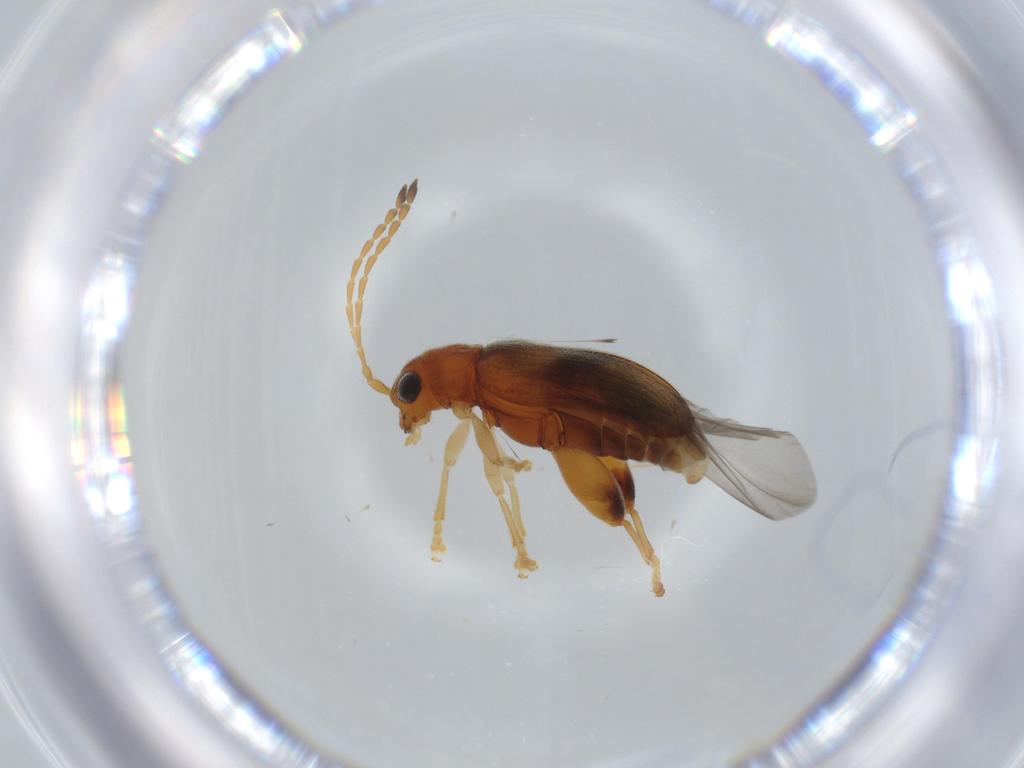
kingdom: Animalia
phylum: Arthropoda
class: Insecta
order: Coleoptera
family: Chrysomelidae
